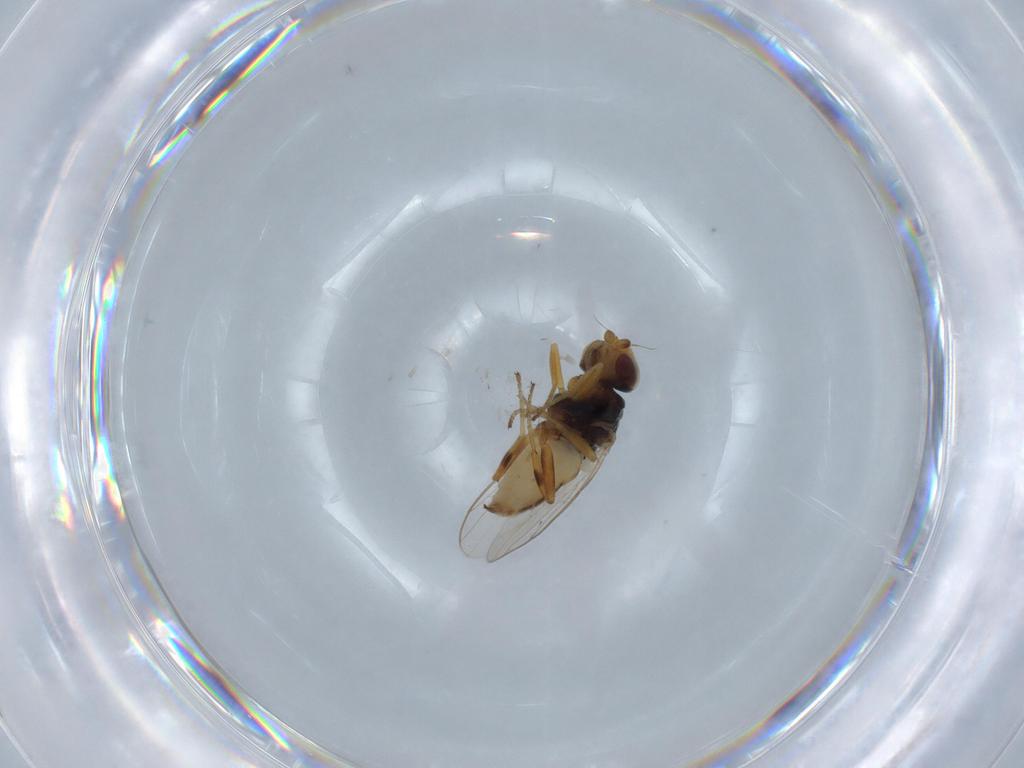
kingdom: Animalia
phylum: Arthropoda
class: Insecta
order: Diptera
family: Chloropidae
